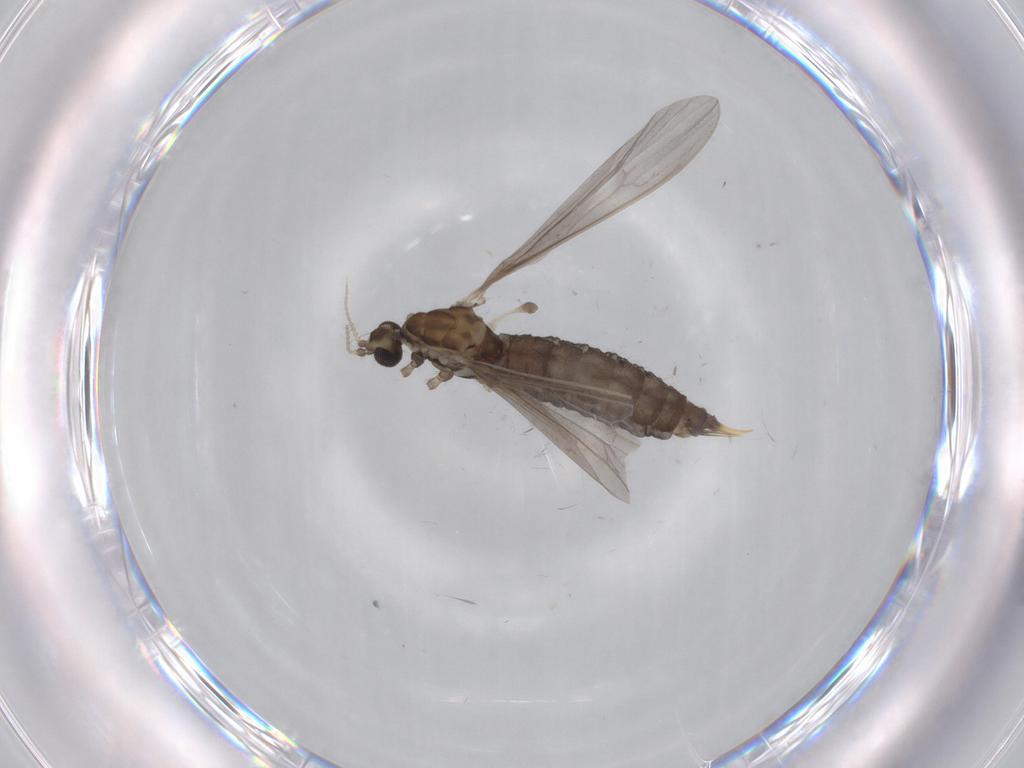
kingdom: Animalia
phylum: Arthropoda
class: Insecta
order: Diptera
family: Limoniidae
